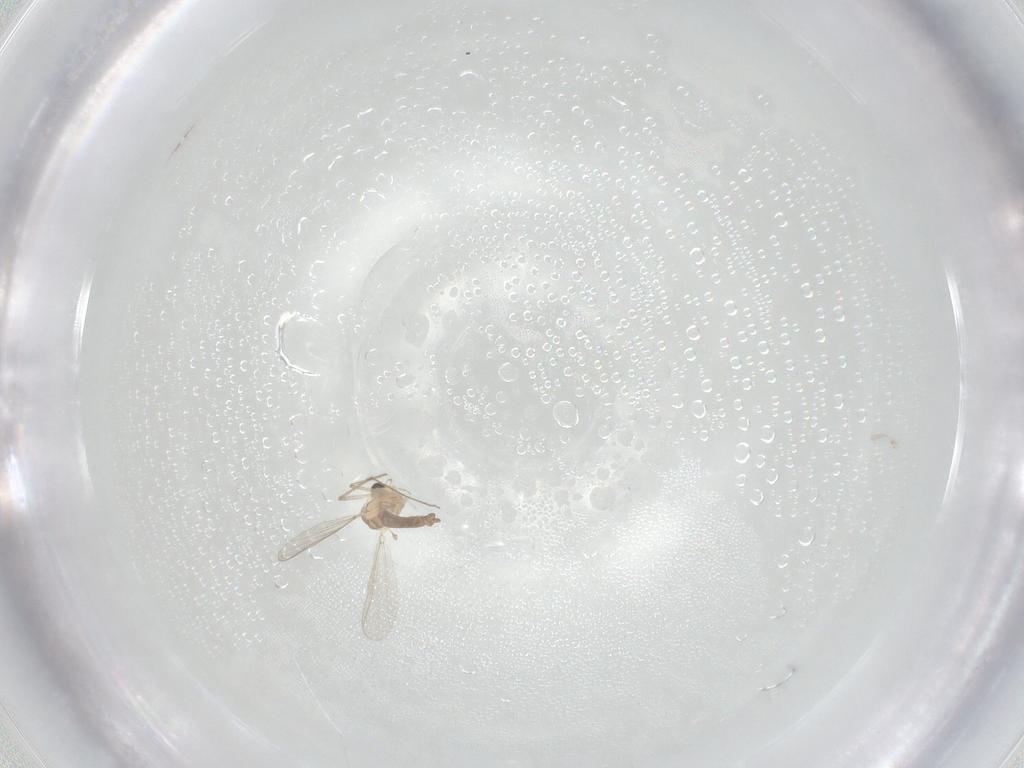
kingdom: Animalia
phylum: Arthropoda
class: Insecta
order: Diptera
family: Chironomidae
